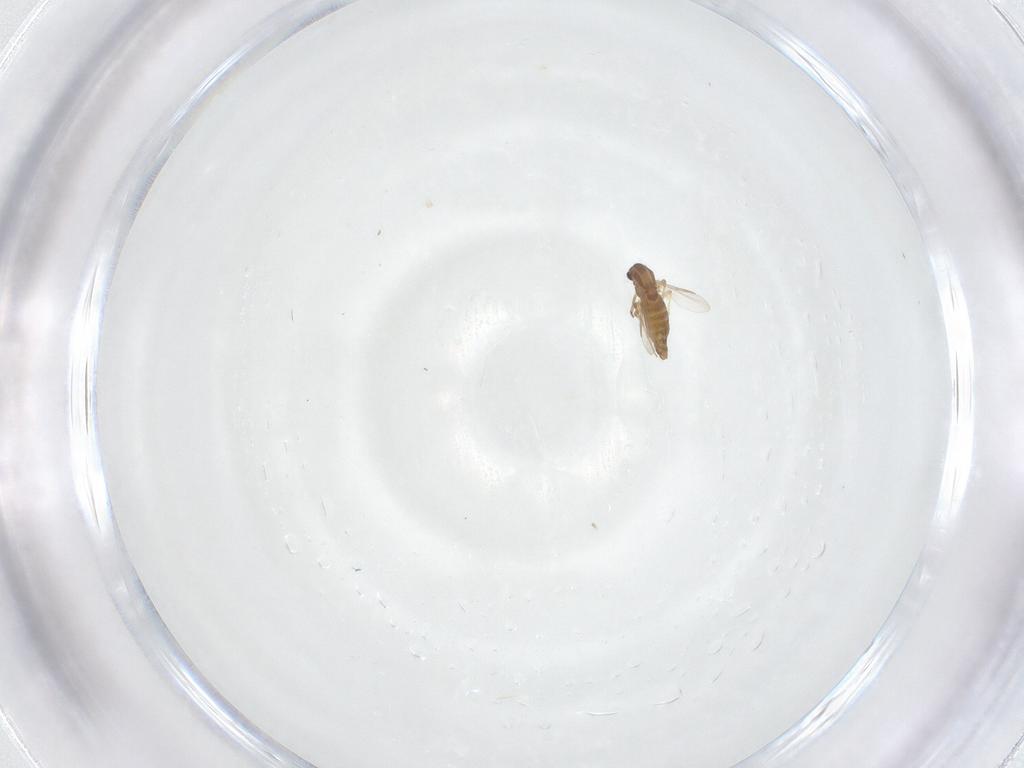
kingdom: Animalia
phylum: Arthropoda
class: Insecta
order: Diptera
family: Chironomidae
